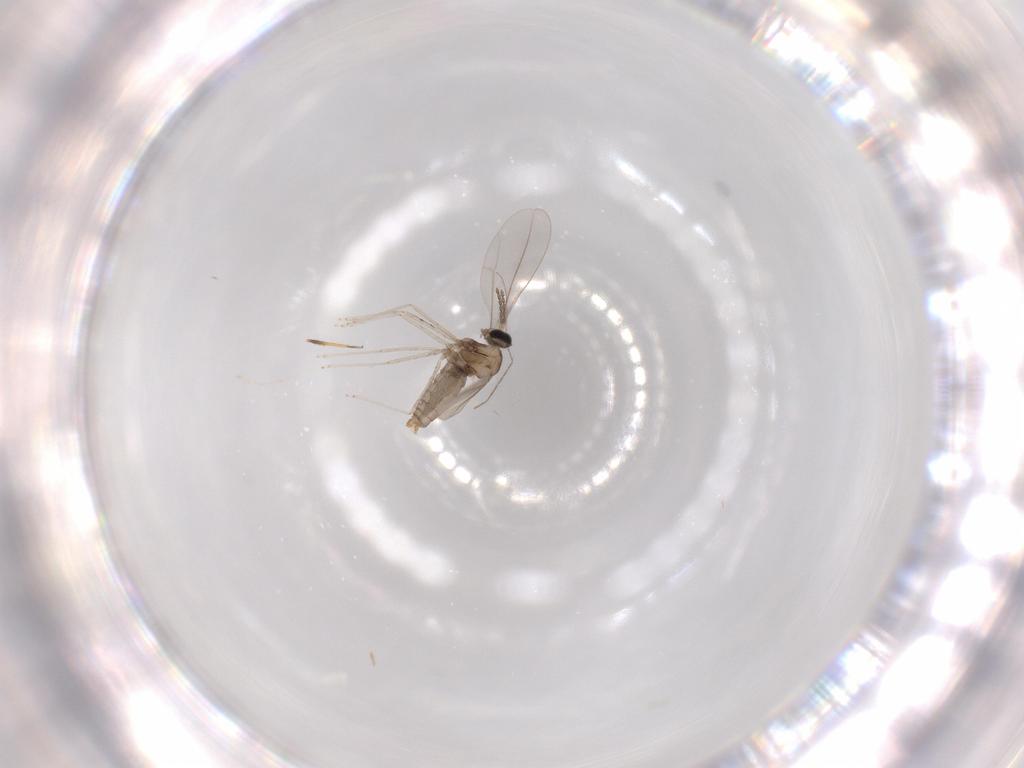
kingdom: Animalia
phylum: Arthropoda
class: Insecta
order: Diptera
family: Cecidomyiidae
